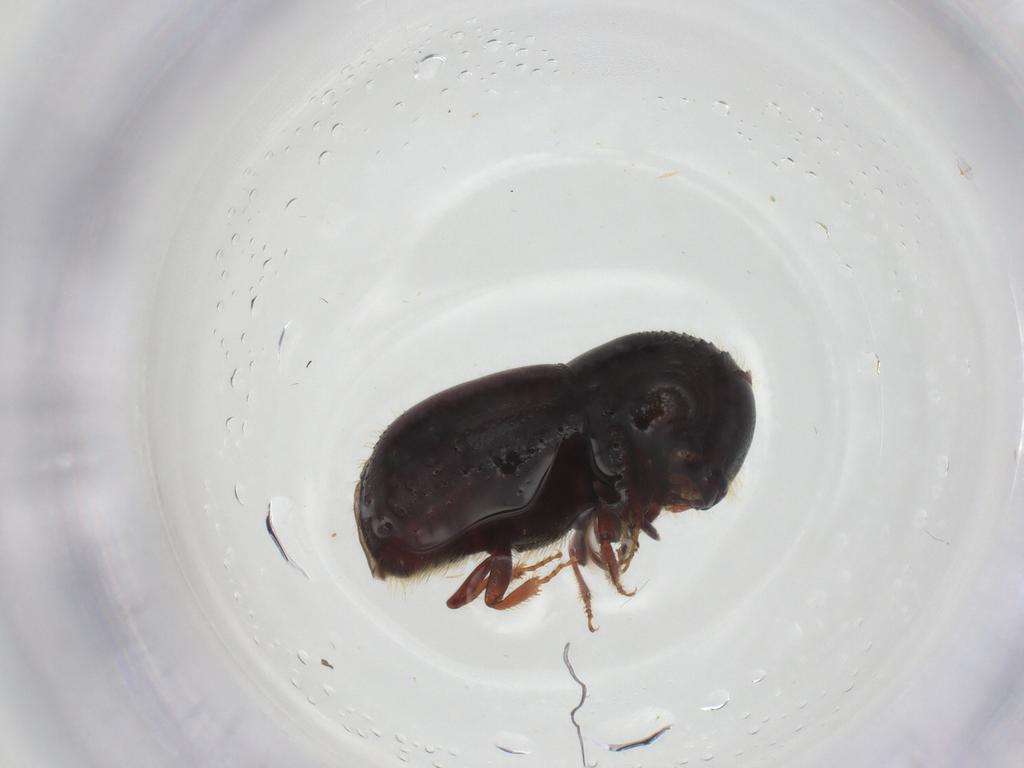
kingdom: Animalia
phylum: Arthropoda
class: Insecta
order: Coleoptera
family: Curculionidae
